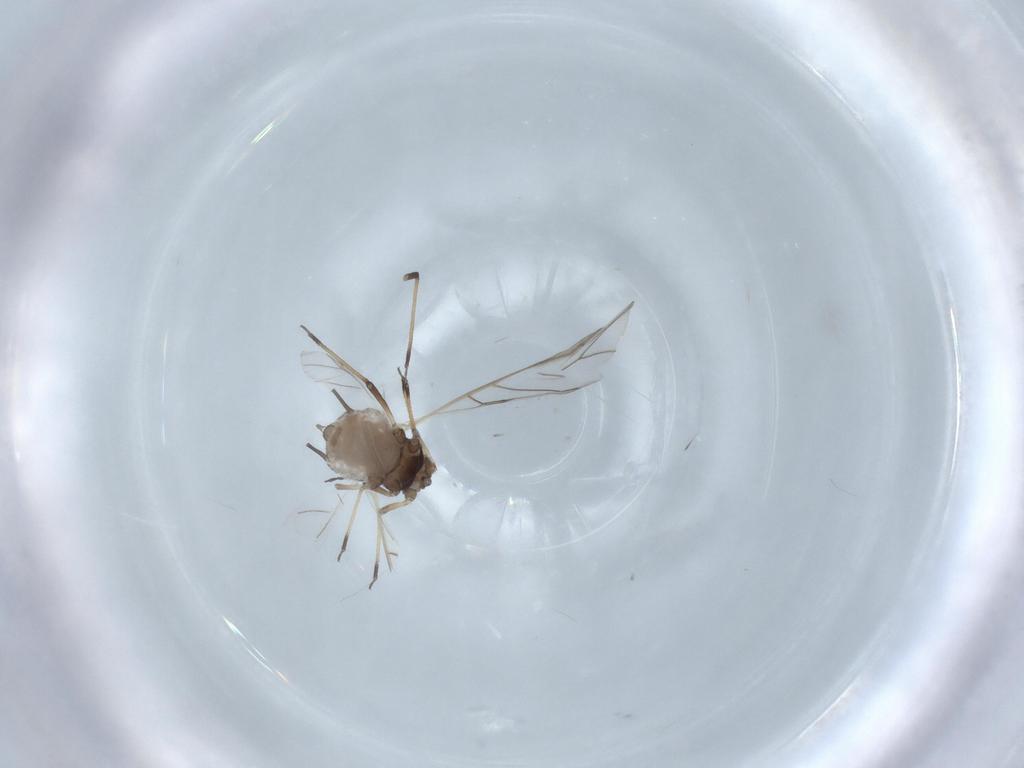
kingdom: Animalia
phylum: Arthropoda
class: Insecta
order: Hemiptera
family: Aphididae
